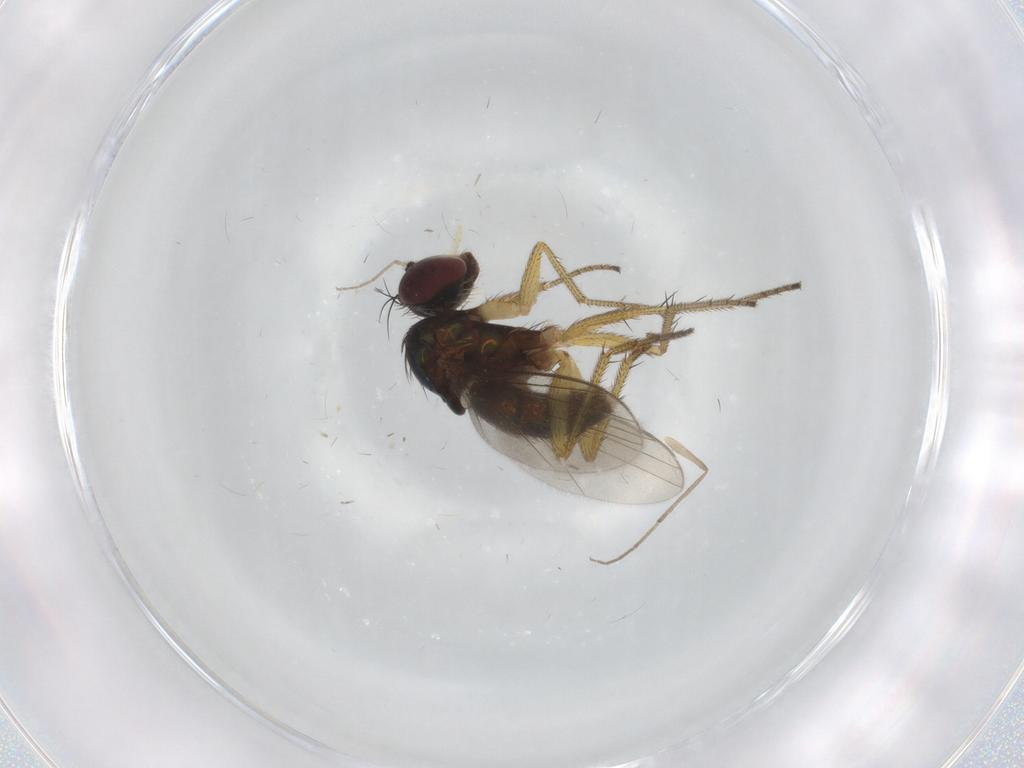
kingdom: Animalia
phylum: Arthropoda
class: Insecta
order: Diptera
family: Dolichopodidae
